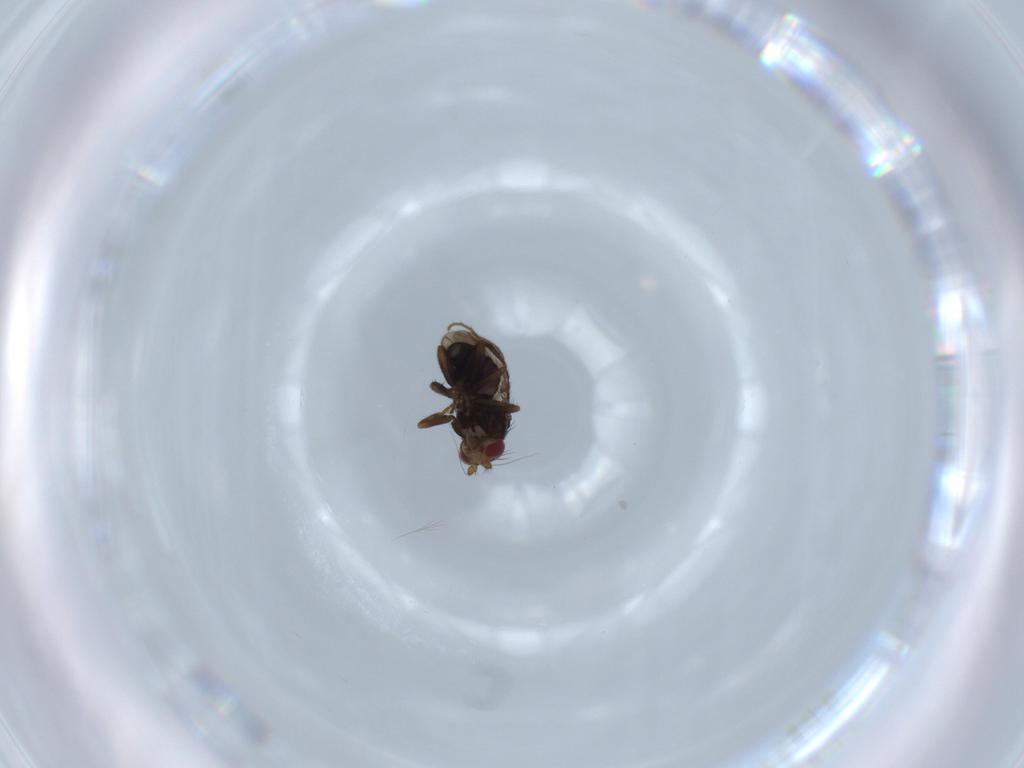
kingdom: Animalia
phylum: Arthropoda
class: Insecta
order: Diptera
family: Sphaeroceridae
